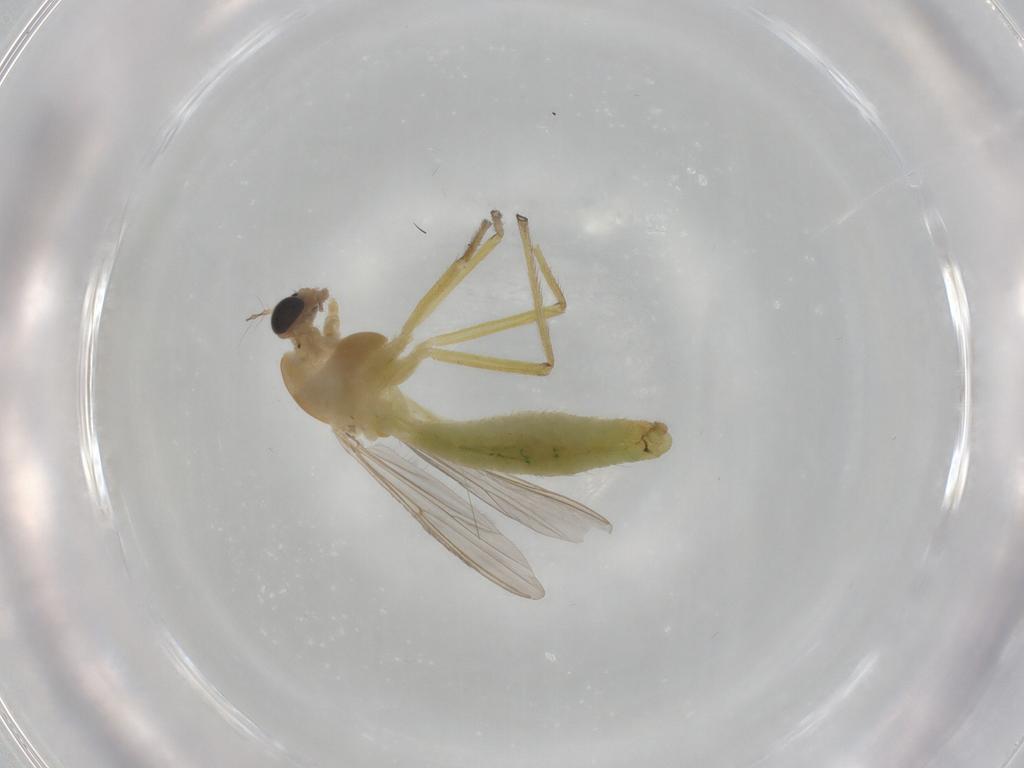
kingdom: Animalia
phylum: Arthropoda
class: Insecta
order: Diptera
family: Chironomidae
